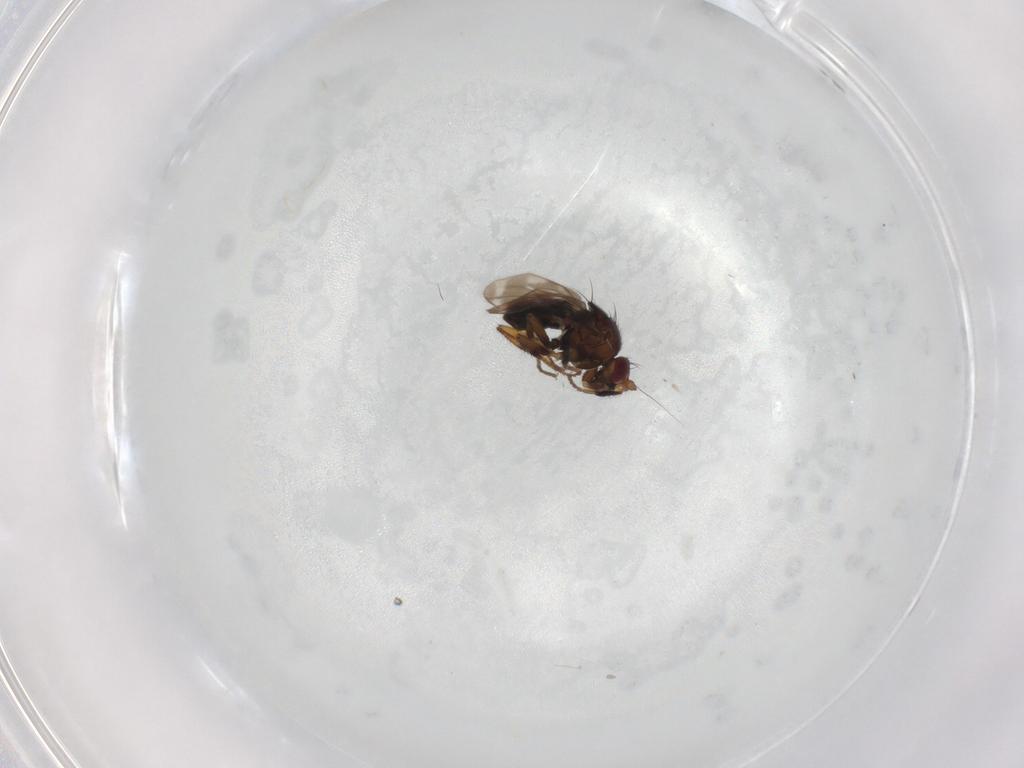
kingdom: Animalia
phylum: Arthropoda
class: Insecta
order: Diptera
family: Sphaeroceridae
